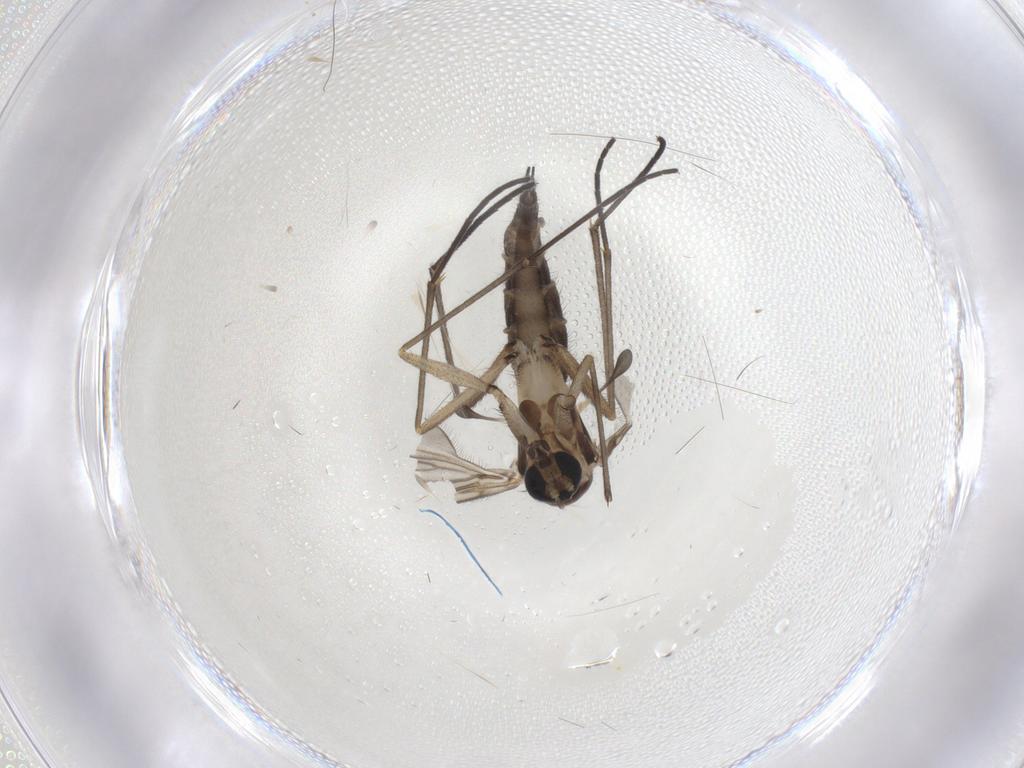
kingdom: Animalia
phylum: Arthropoda
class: Insecta
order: Diptera
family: Sciaridae
